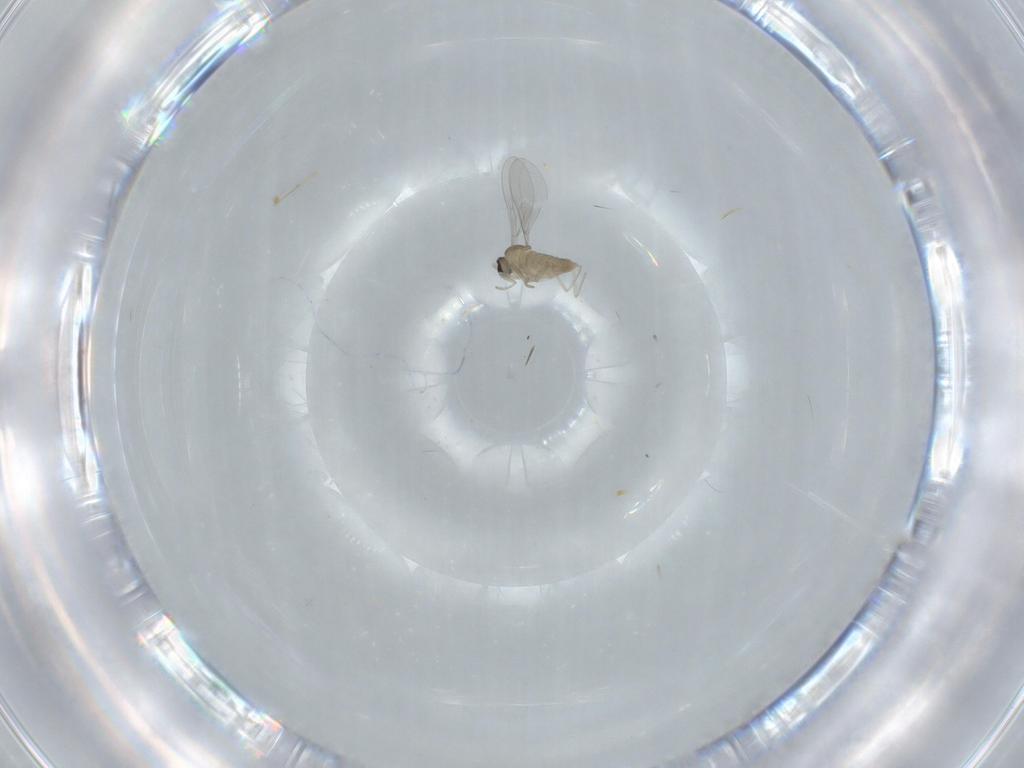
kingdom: Animalia
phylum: Arthropoda
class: Insecta
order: Diptera
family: Cecidomyiidae
